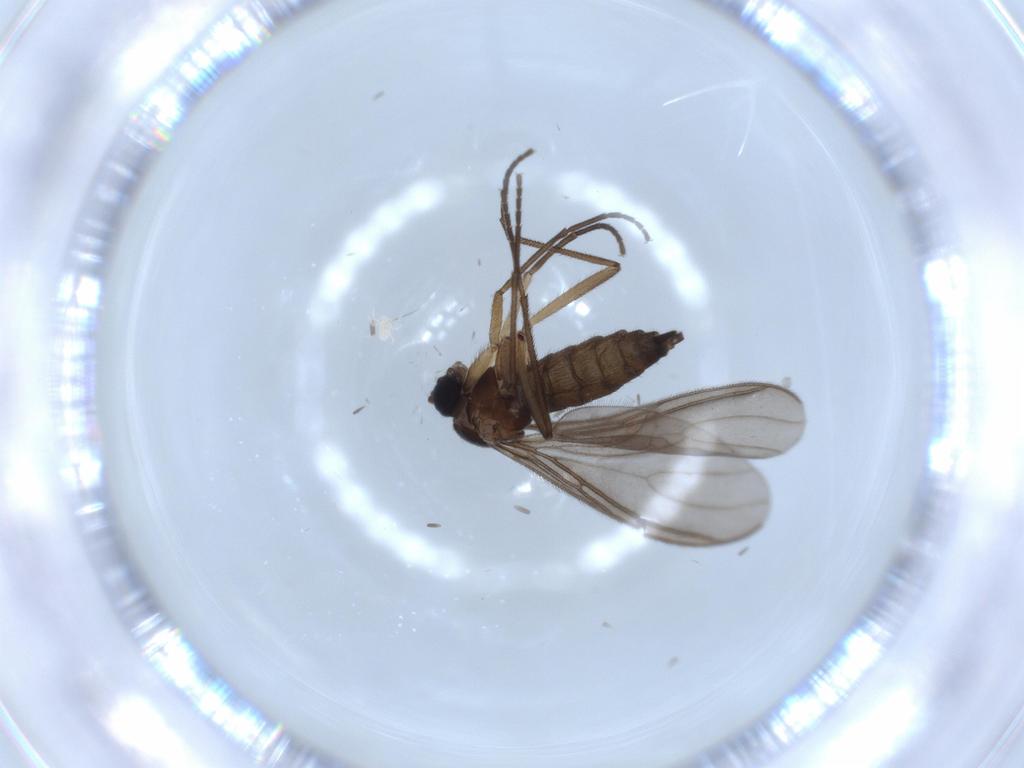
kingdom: Animalia
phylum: Arthropoda
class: Insecta
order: Diptera
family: Sciaridae
